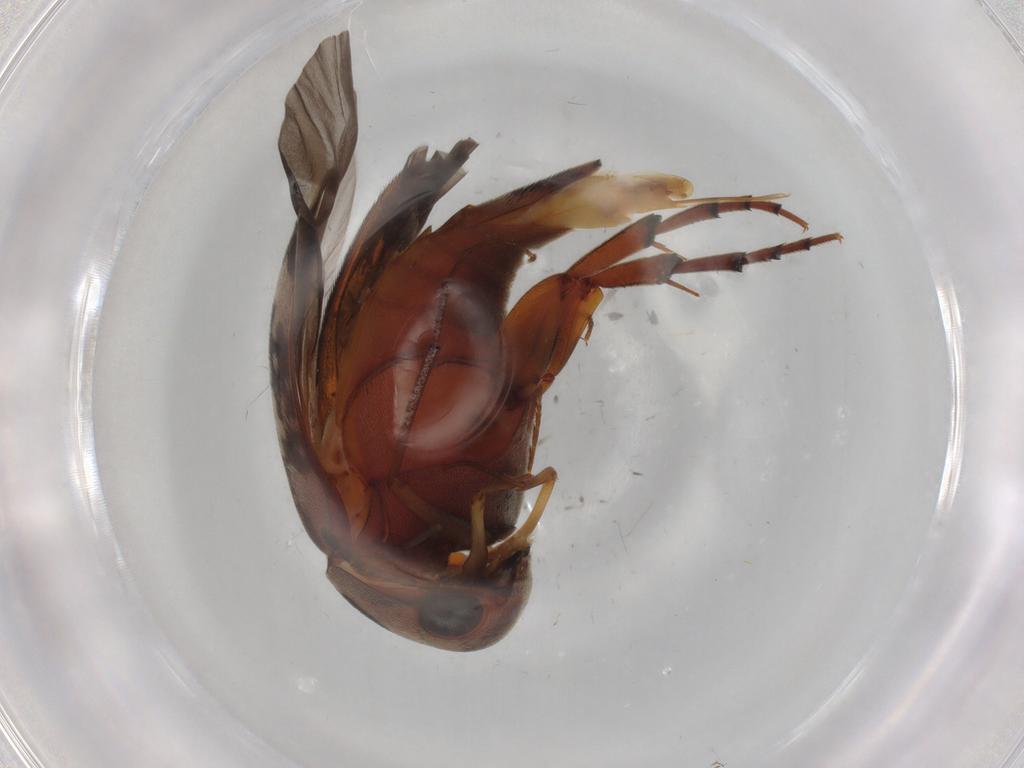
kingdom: Animalia
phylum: Arthropoda
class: Insecta
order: Coleoptera
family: Mordellidae
